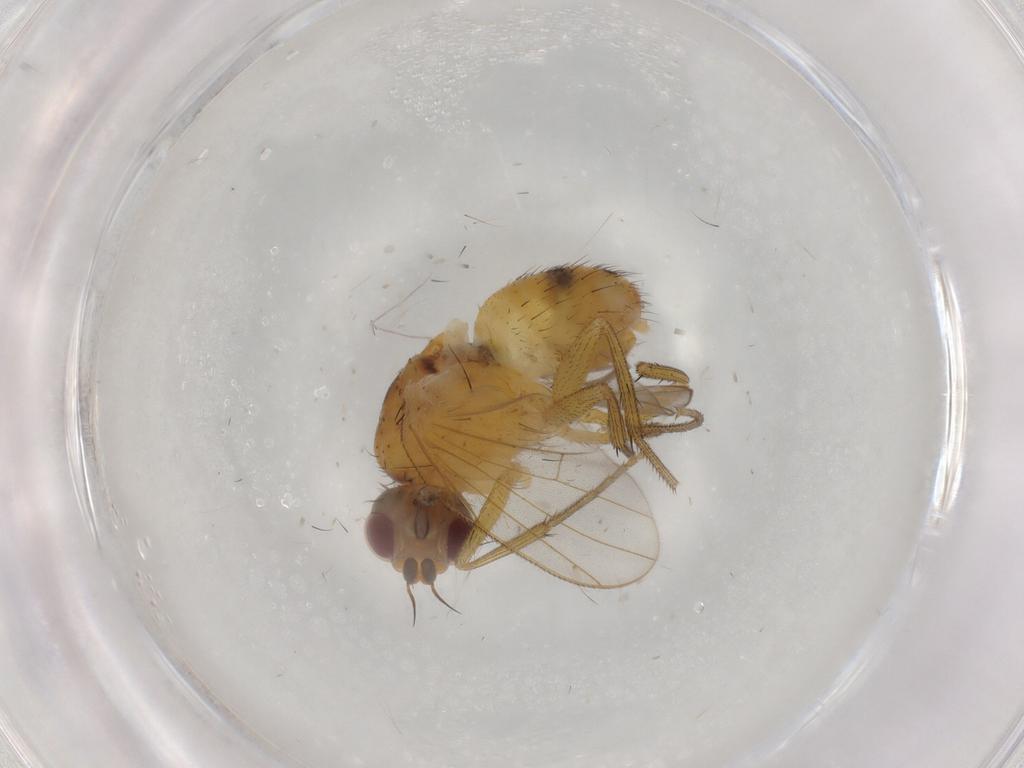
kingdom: Animalia
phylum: Arthropoda
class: Insecta
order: Diptera
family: Muscidae
